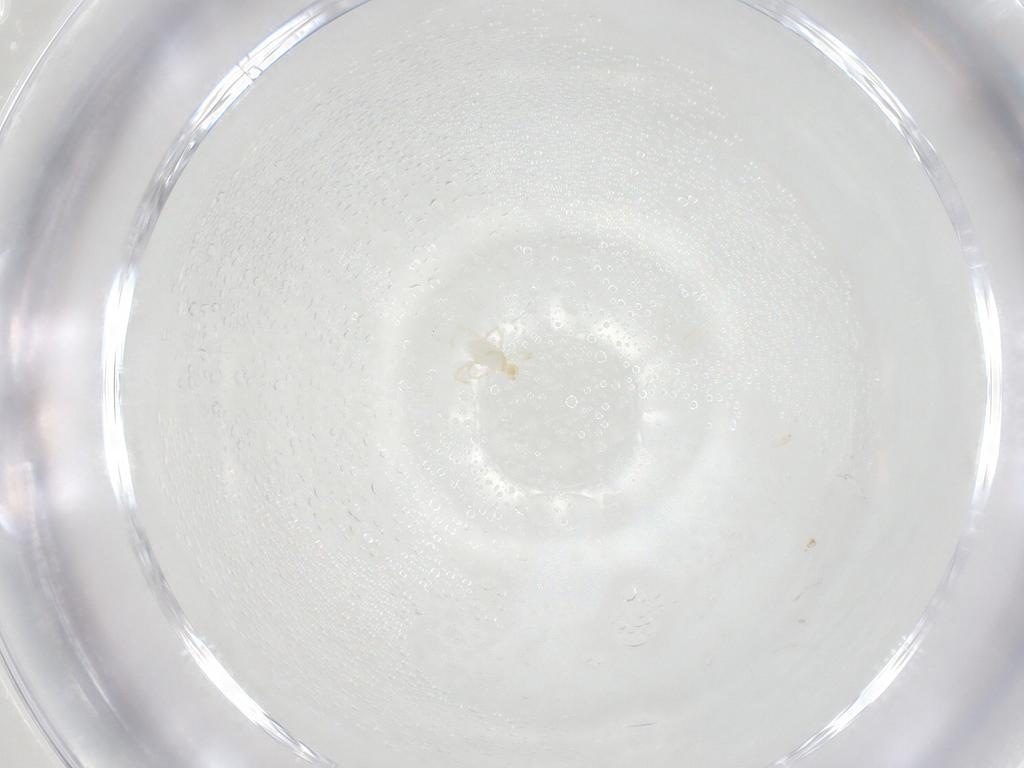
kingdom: Animalia
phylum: Arthropoda
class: Arachnida
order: Trombidiformes
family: Erythraeidae
